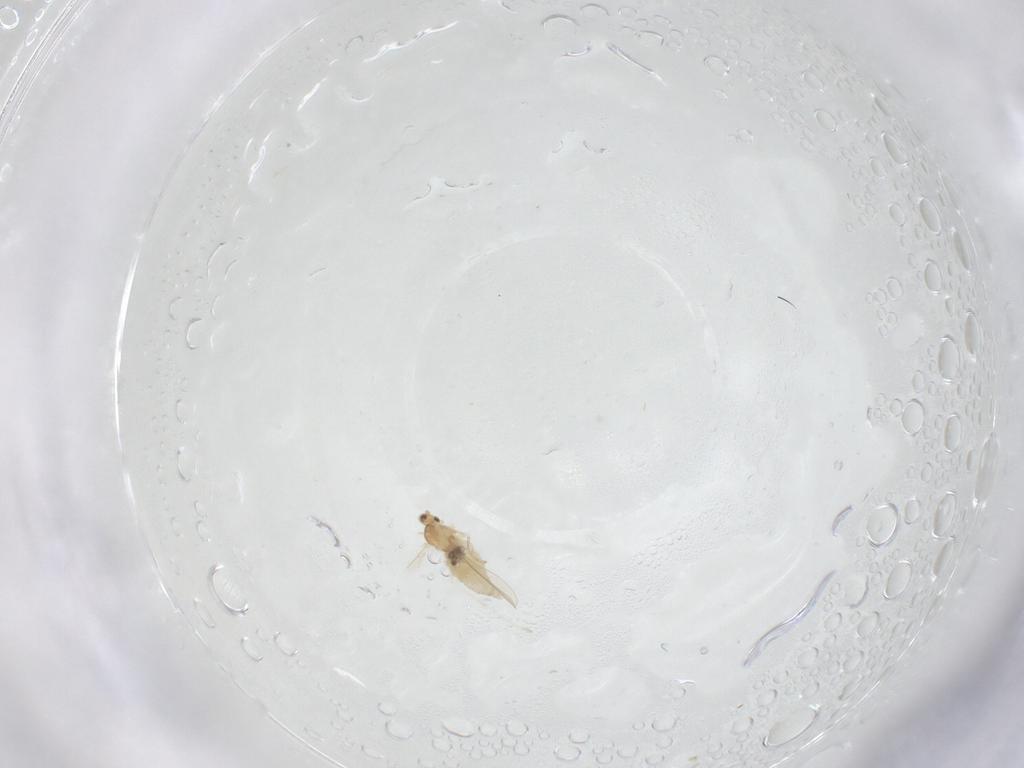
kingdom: Animalia
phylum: Arthropoda
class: Insecta
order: Diptera
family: Cecidomyiidae
